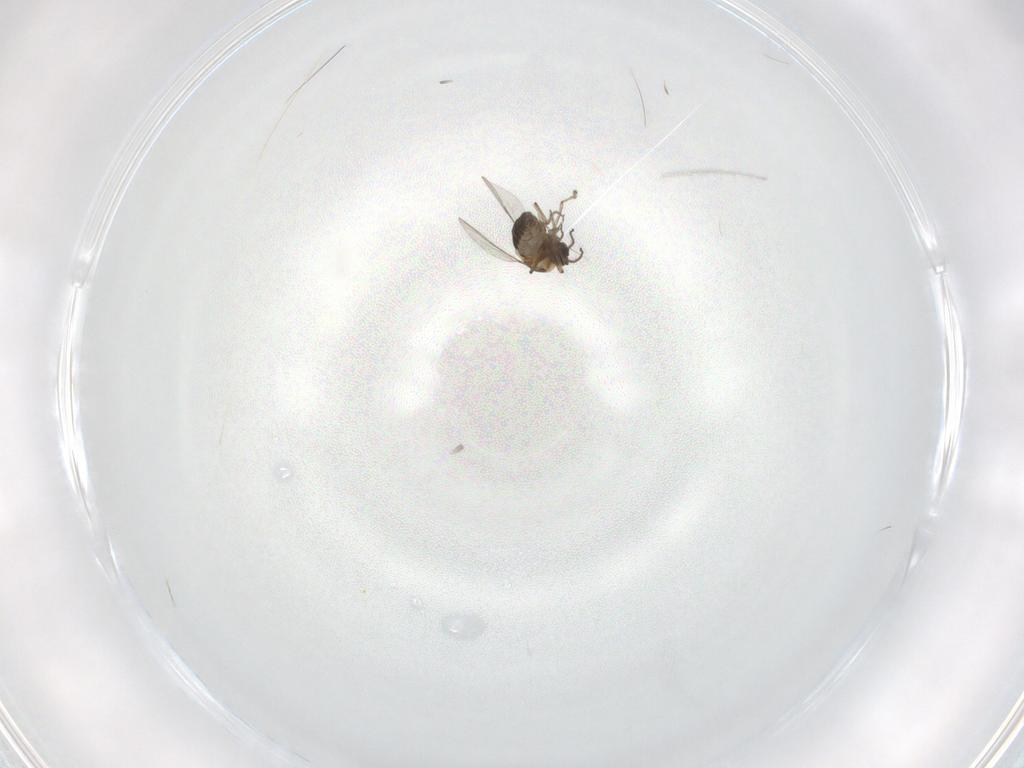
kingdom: Animalia
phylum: Arthropoda
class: Insecta
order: Diptera
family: Ceratopogonidae
